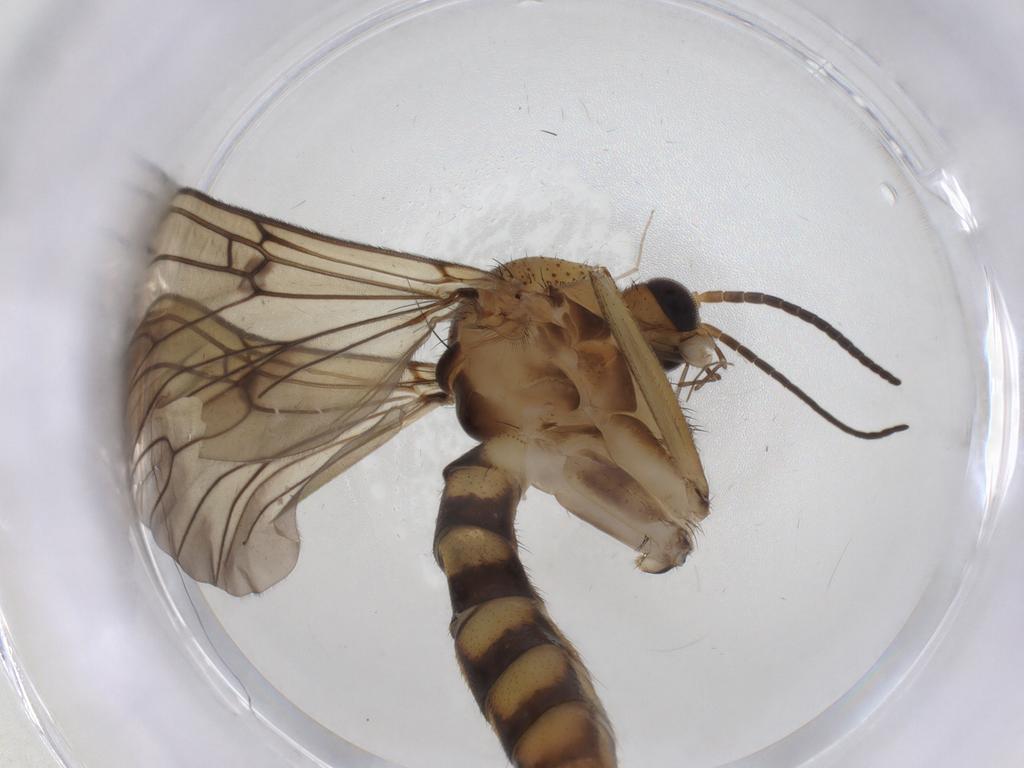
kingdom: Animalia
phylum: Arthropoda
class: Insecta
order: Diptera
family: Mycetophilidae
